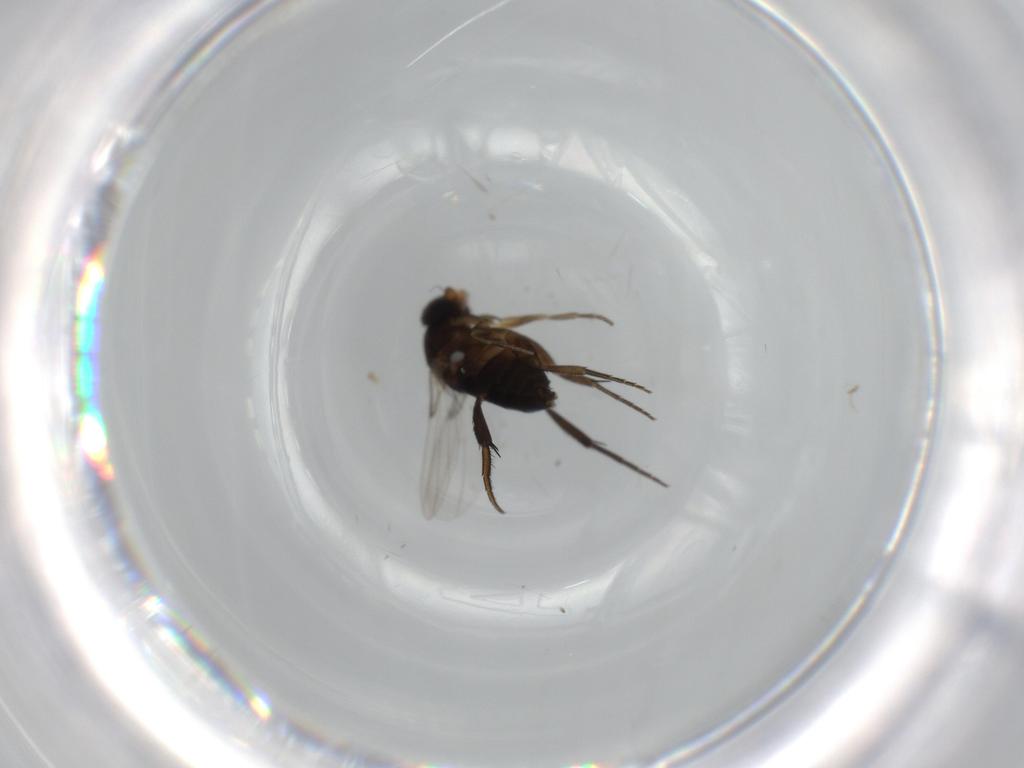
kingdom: Animalia
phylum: Arthropoda
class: Insecta
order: Diptera
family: Phoridae
